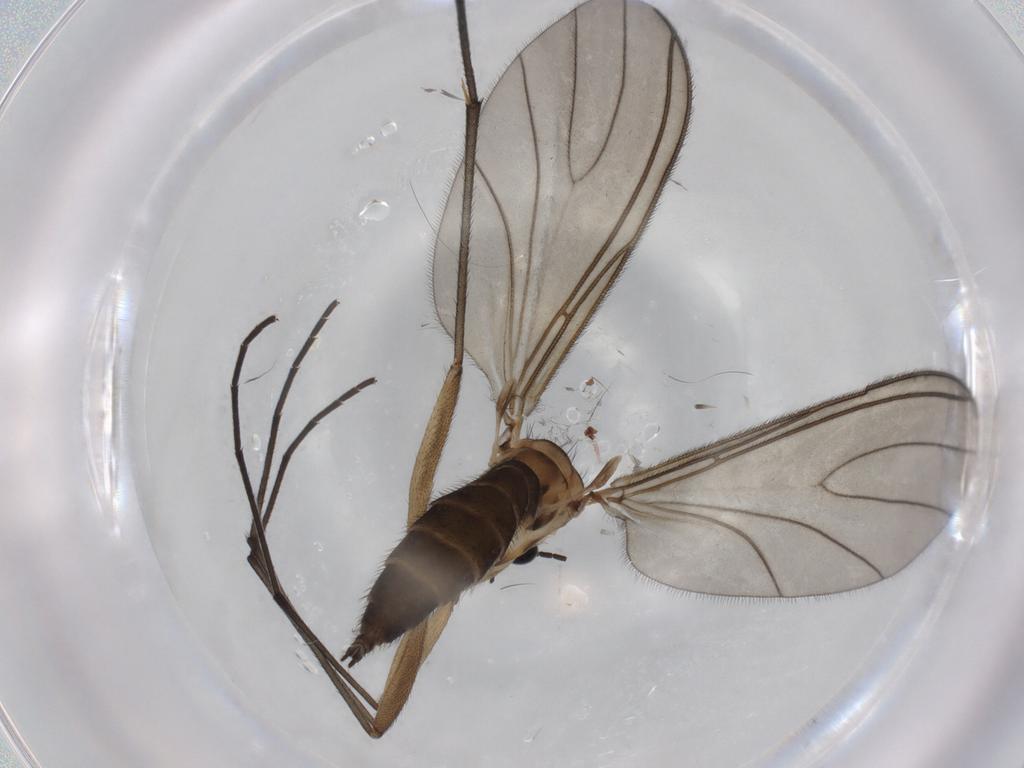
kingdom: Animalia
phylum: Arthropoda
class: Insecta
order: Diptera
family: Sciaridae
